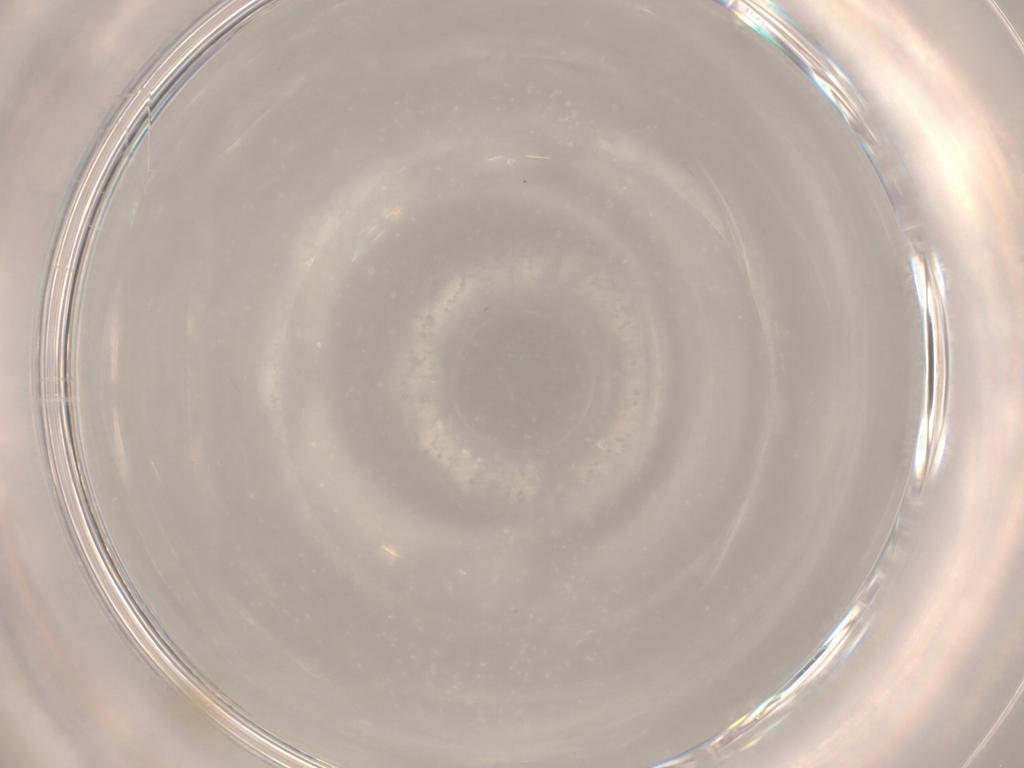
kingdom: Animalia
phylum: Arthropoda
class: Insecta
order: Diptera
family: Cecidomyiidae
